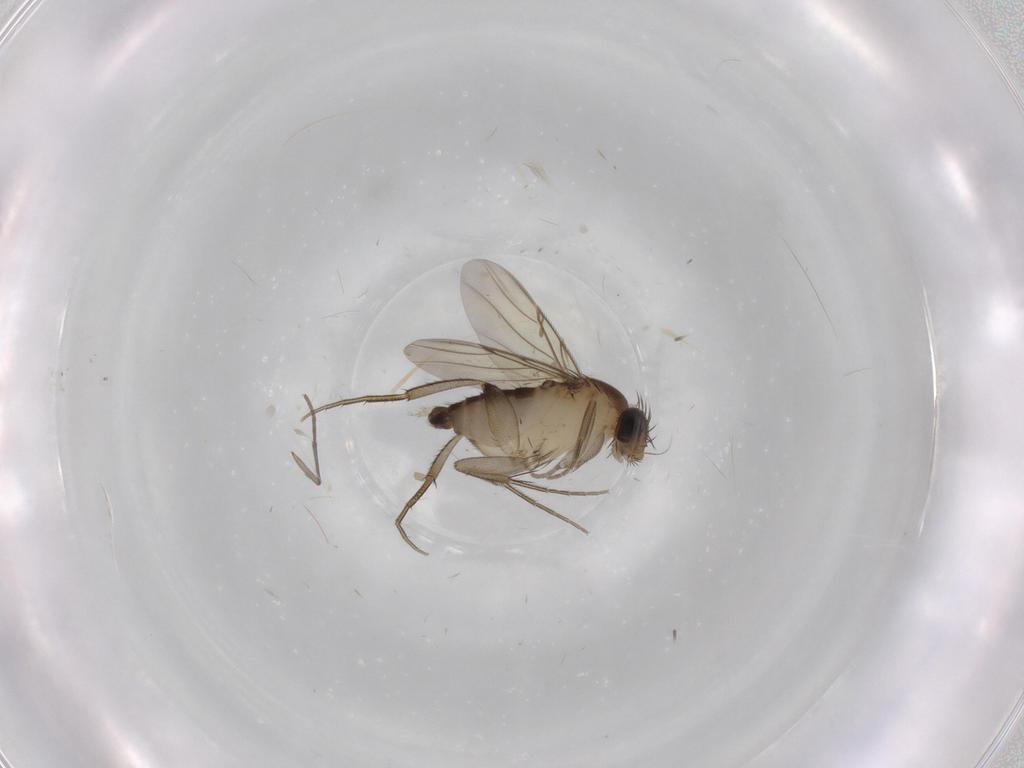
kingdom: Animalia
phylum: Arthropoda
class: Insecta
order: Diptera
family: Phoridae
